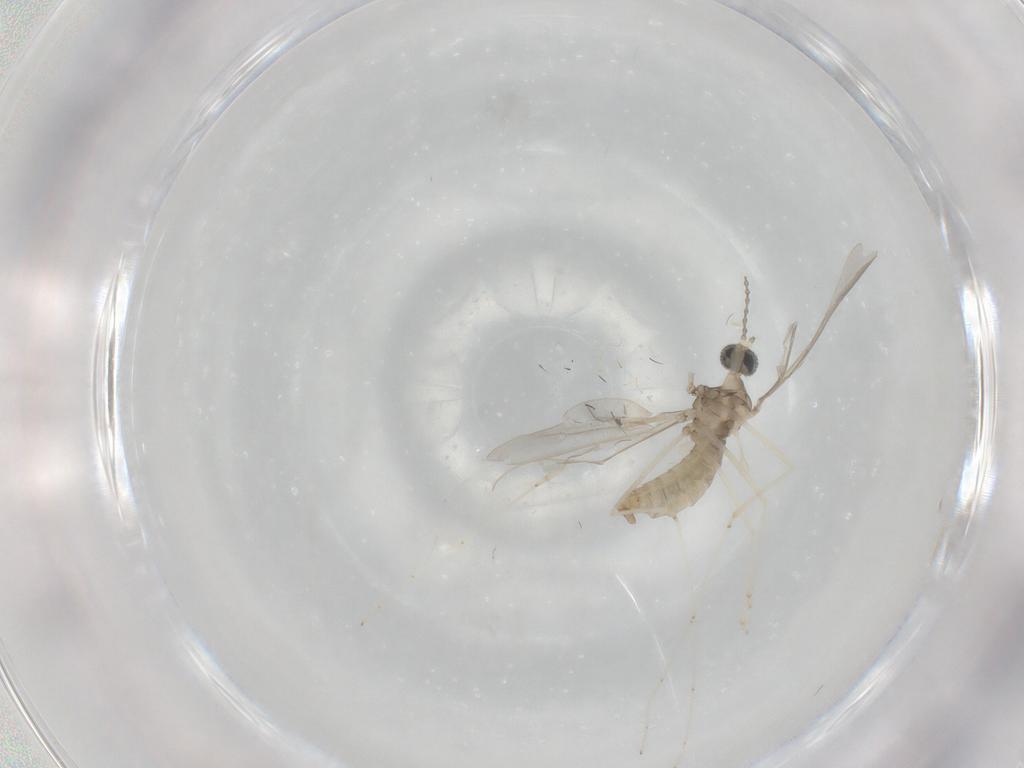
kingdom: Animalia
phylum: Arthropoda
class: Insecta
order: Diptera
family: Cecidomyiidae
